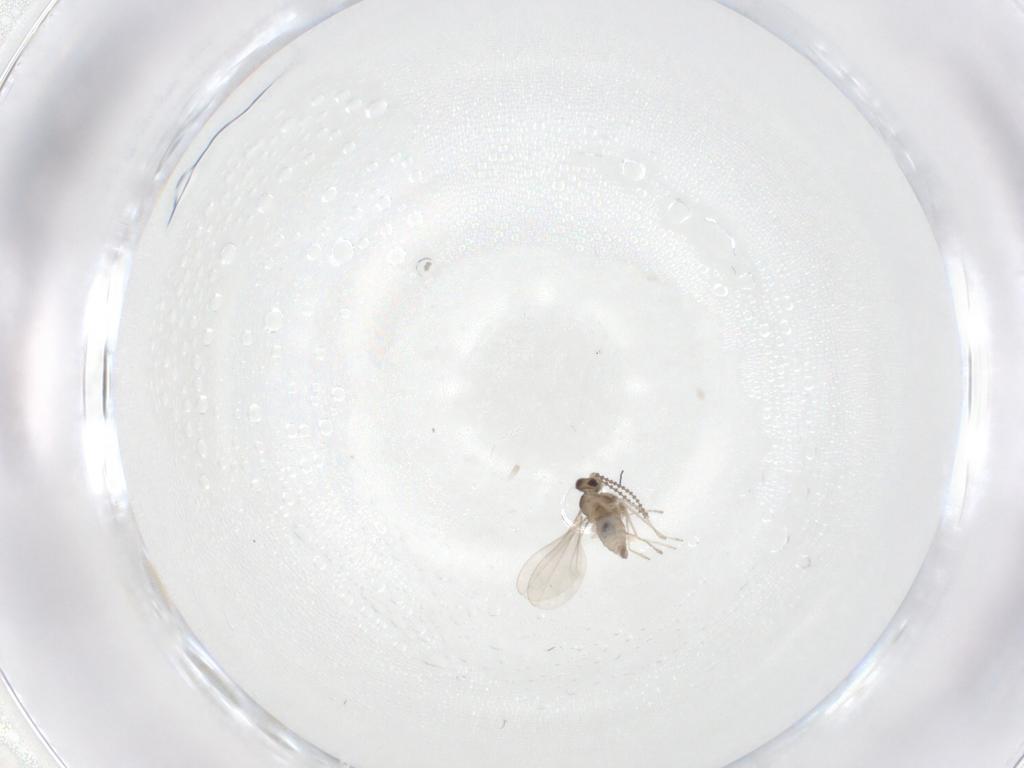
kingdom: Animalia
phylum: Arthropoda
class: Insecta
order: Diptera
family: Cecidomyiidae
